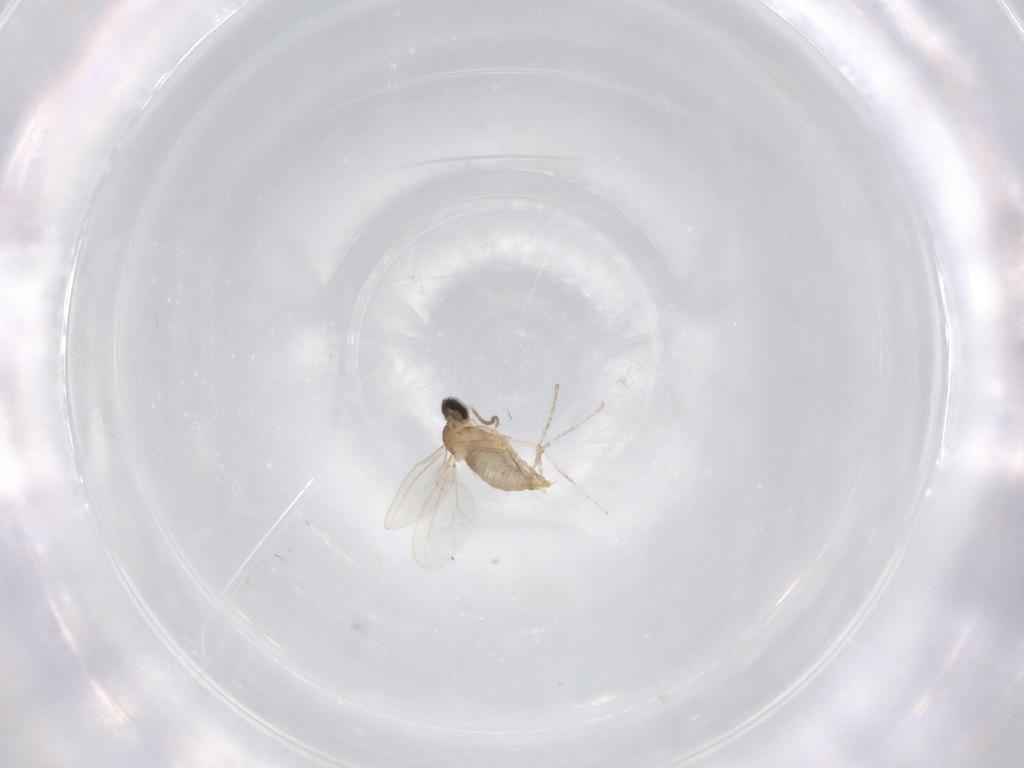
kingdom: Animalia
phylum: Arthropoda
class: Insecta
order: Diptera
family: Cecidomyiidae
